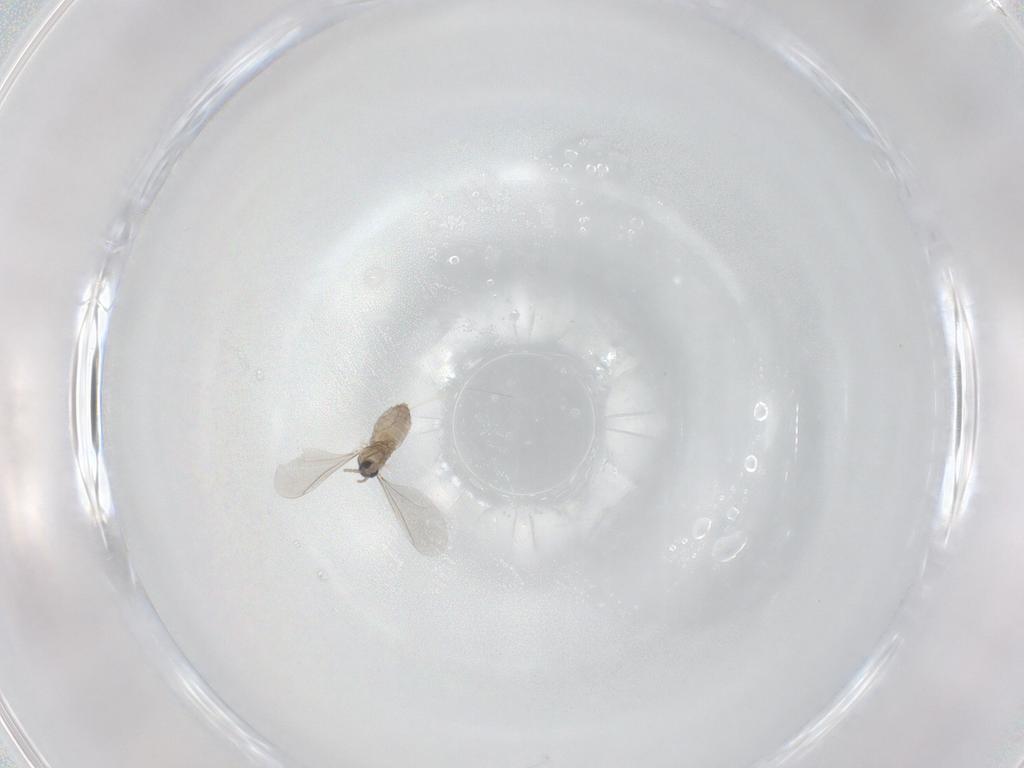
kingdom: Animalia
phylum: Arthropoda
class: Insecta
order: Diptera
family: Cecidomyiidae
